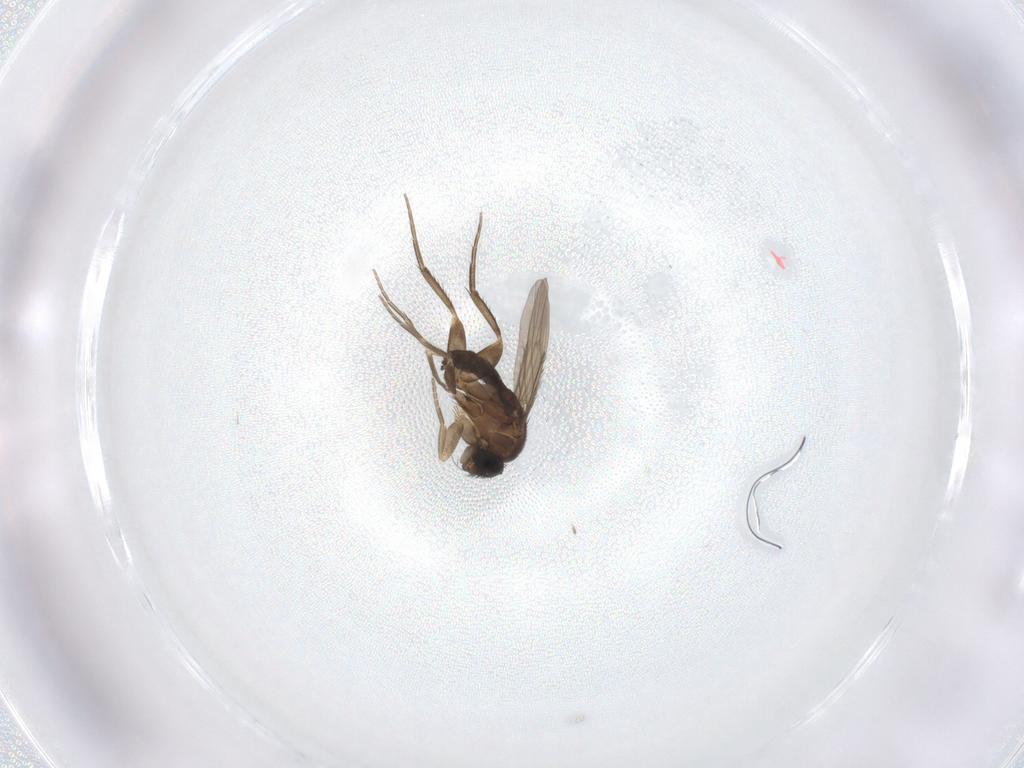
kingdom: Animalia
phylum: Arthropoda
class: Insecta
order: Diptera
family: Phoridae
